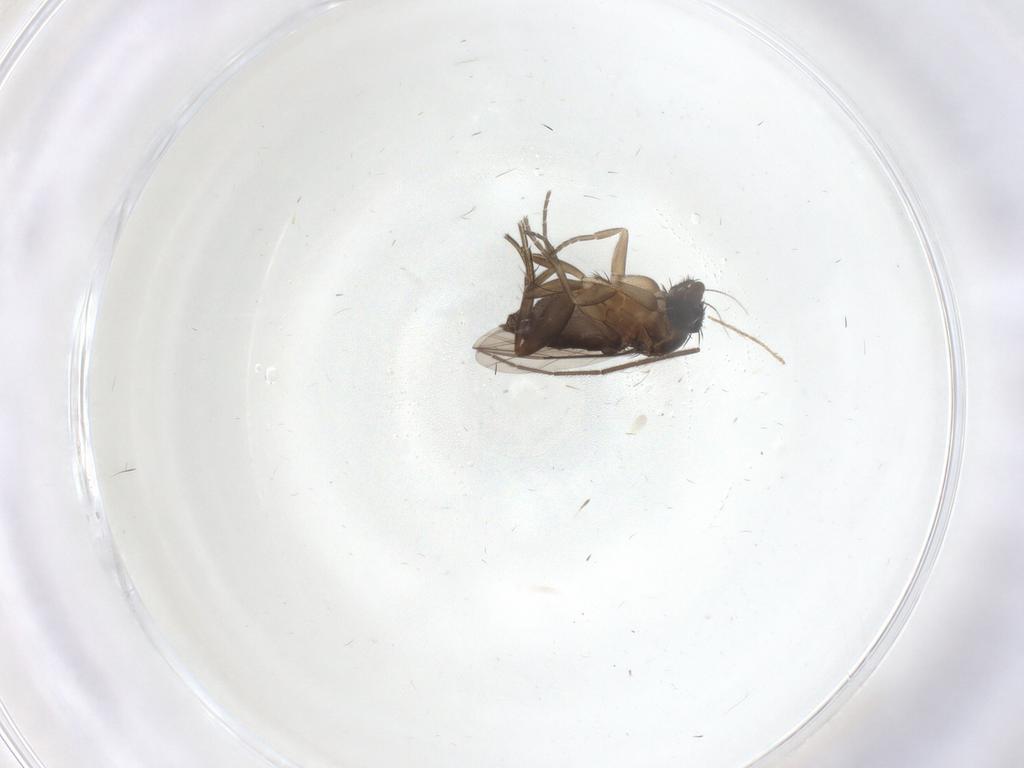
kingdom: Animalia
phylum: Arthropoda
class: Insecta
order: Diptera
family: Phoridae
